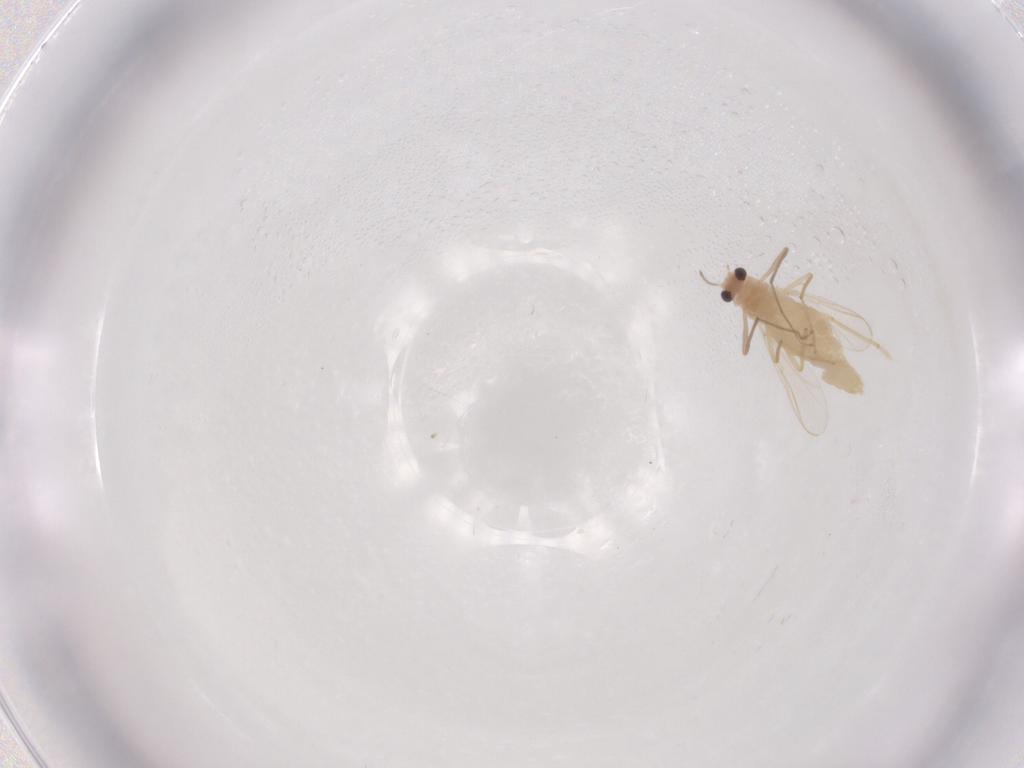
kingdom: Animalia
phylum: Arthropoda
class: Insecta
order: Diptera
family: Chironomidae
